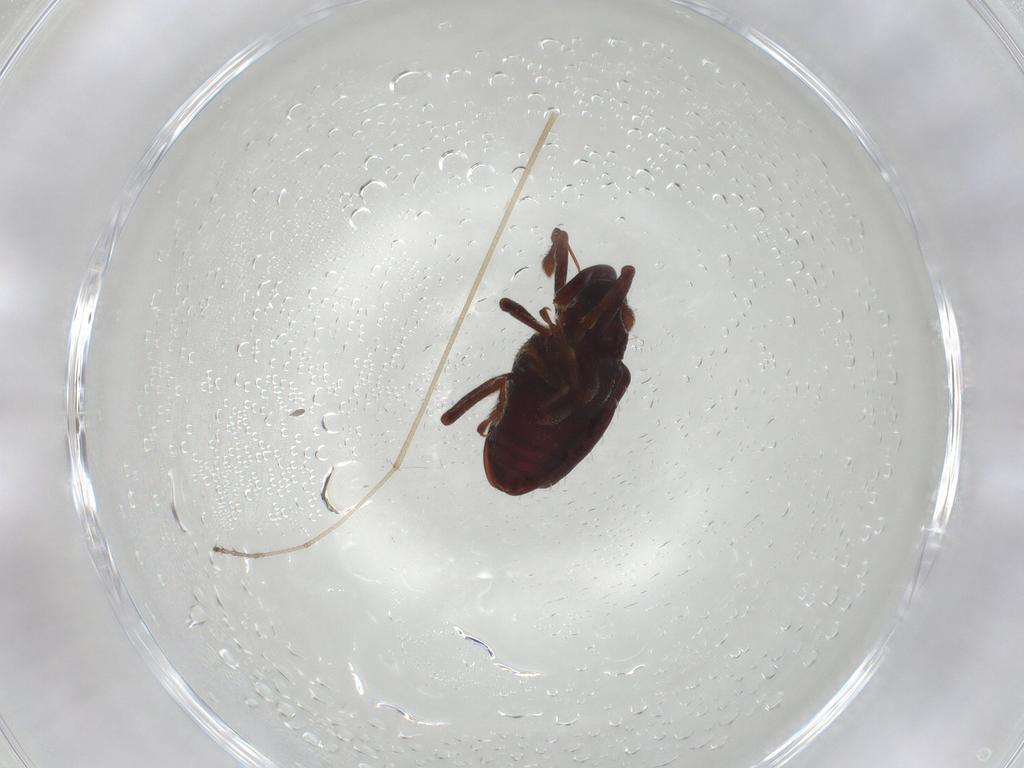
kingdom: Animalia
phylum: Arthropoda
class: Insecta
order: Coleoptera
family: Curculionidae
